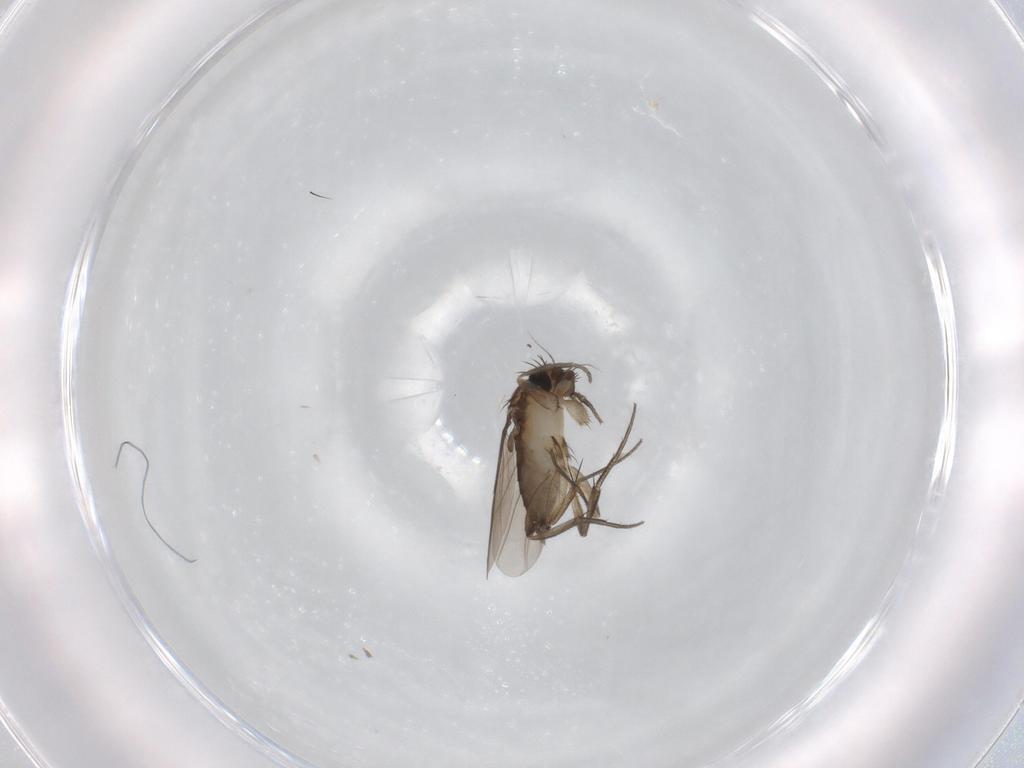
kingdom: Animalia
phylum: Arthropoda
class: Insecta
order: Diptera
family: Phoridae
